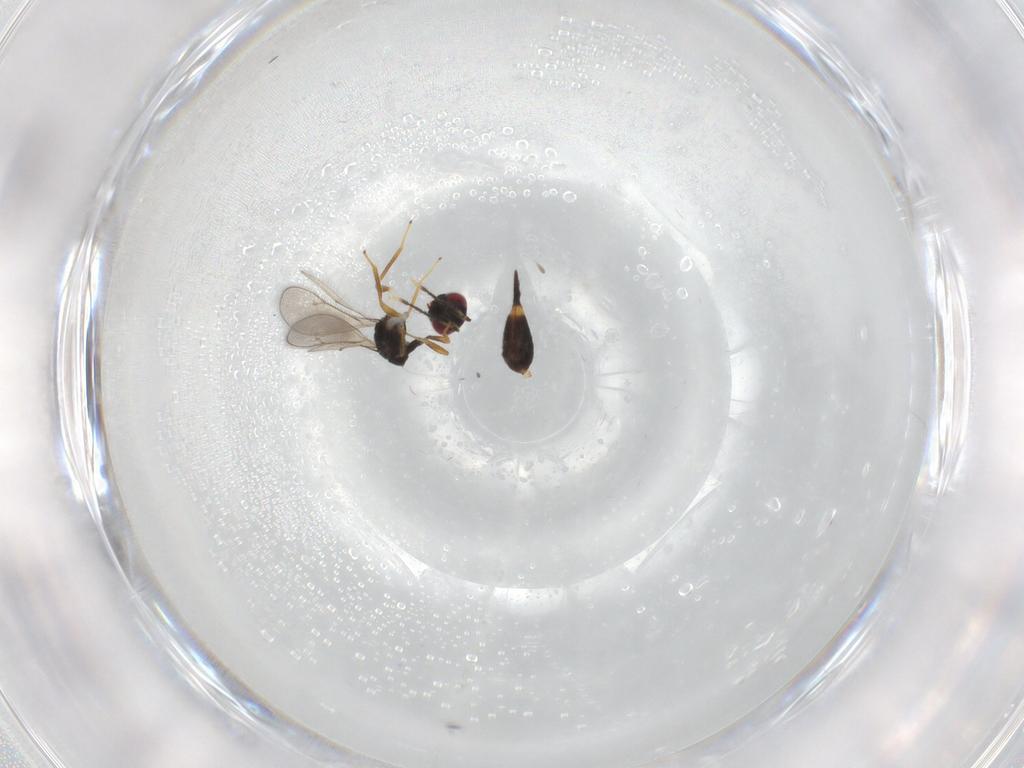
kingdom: Animalia
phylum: Arthropoda
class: Insecta
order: Hymenoptera
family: Eulophidae
